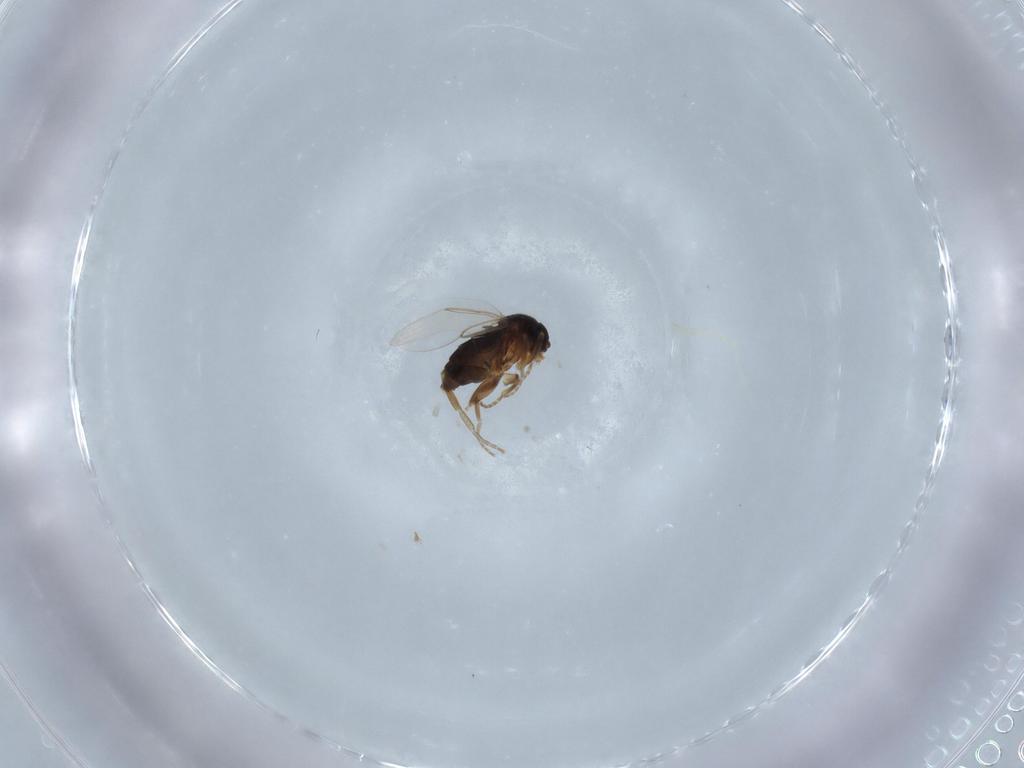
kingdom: Animalia
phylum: Arthropoda
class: Insecta
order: Diptera
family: Phoridae
